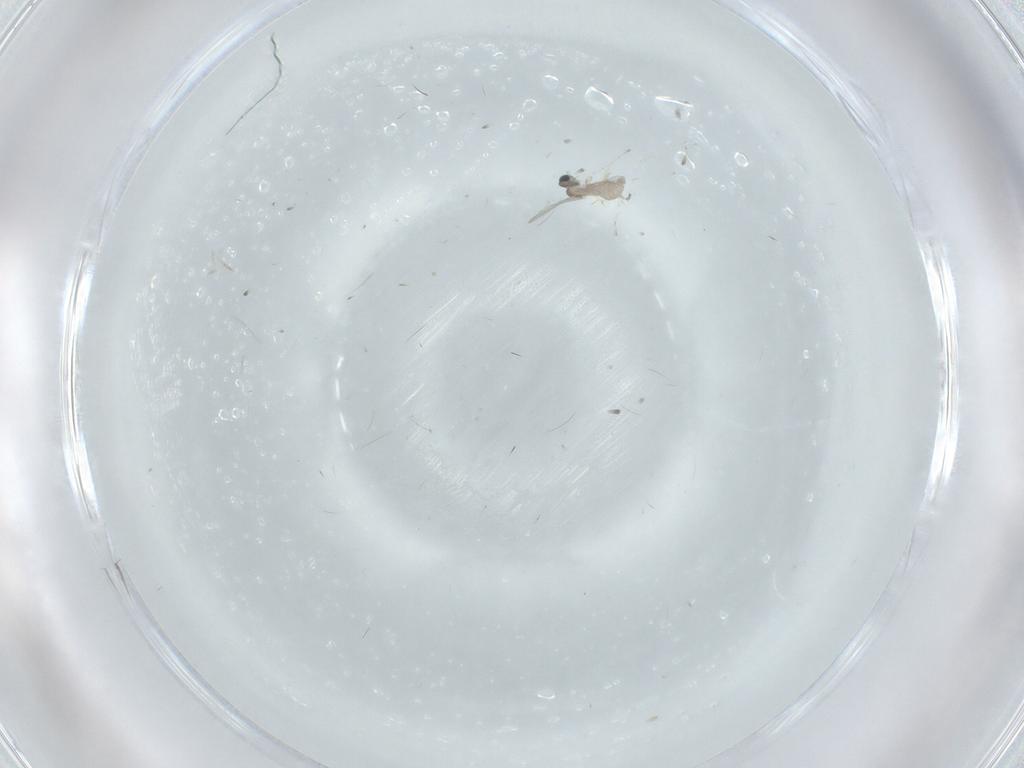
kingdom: Animalia
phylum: Arthropoda
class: Insecta
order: Diptera
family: Cecidomyiidae
